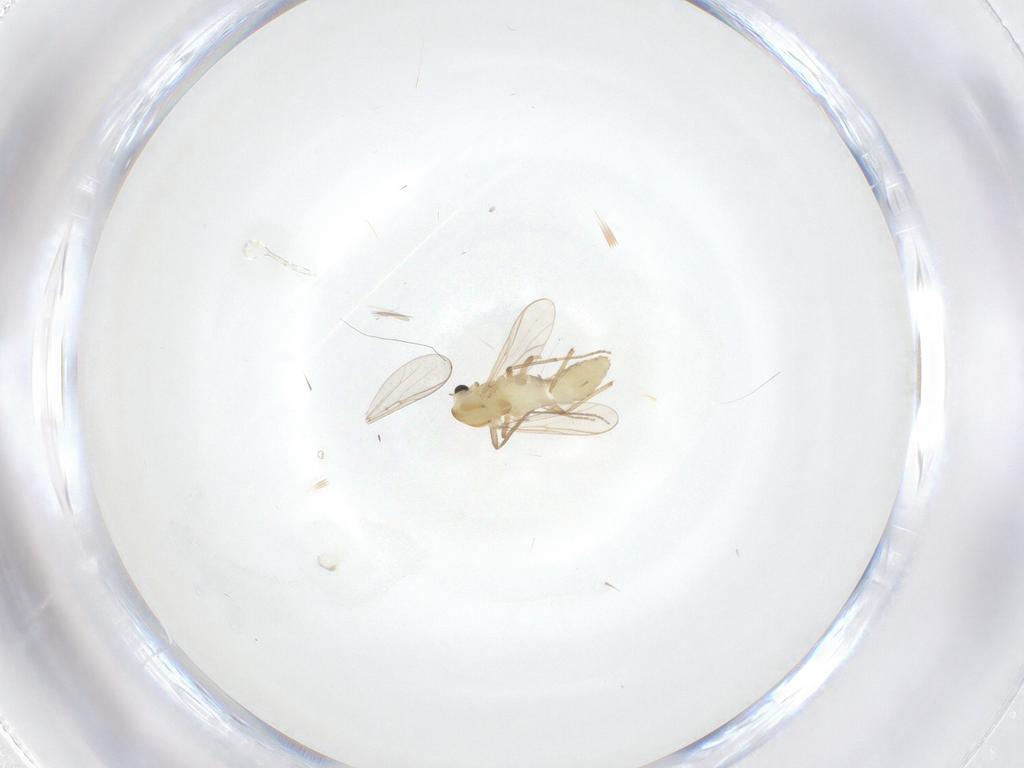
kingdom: Animalia
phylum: Arthropoda
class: Insecta
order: Diptera
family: Chironomidae
